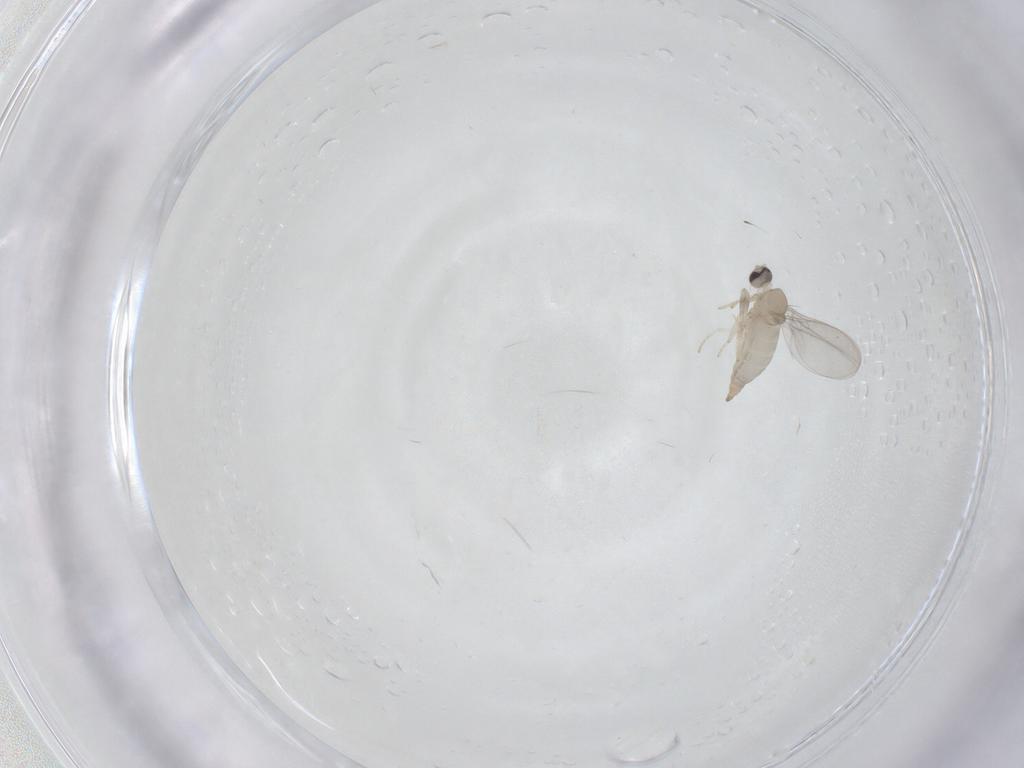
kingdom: Animalia
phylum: Arthropoda
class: Insecta
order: Diptera
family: Cecidomyiidae
